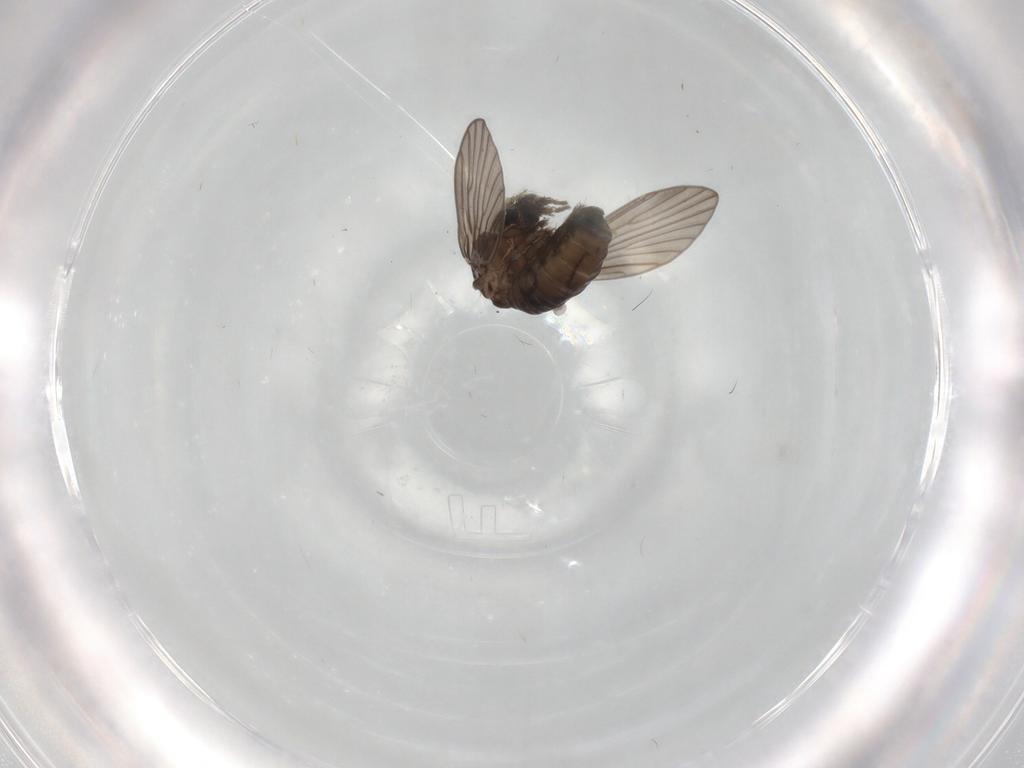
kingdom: Animalia
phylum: Arthropoda
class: Insecta
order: Diptera
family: Psychodidae
